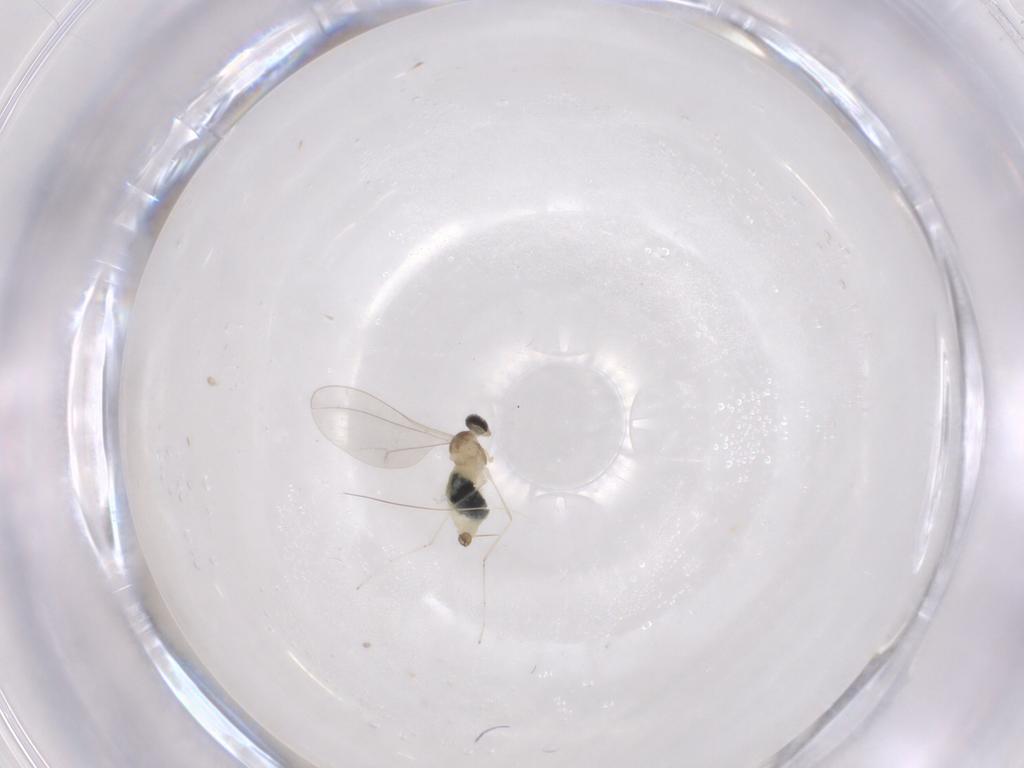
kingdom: Animalia
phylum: Arthropoda
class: Insecta
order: Diptera
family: Cecidomyiidae
